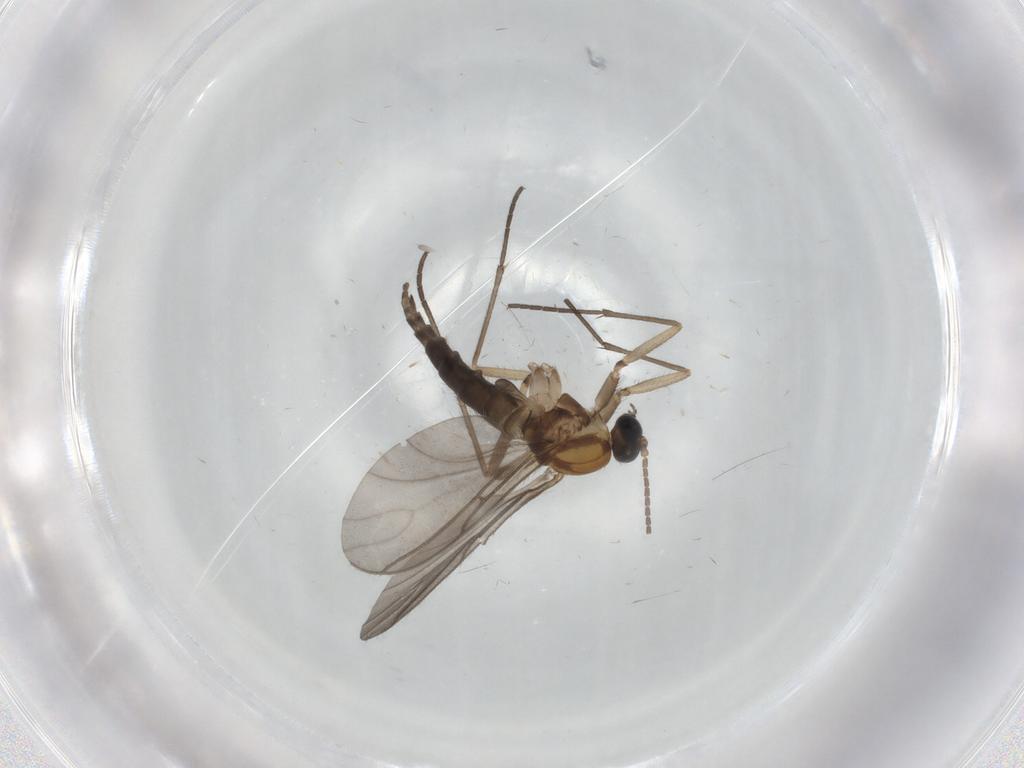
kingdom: Animalia
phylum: Arthropoda
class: Insecta
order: Diptera
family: Sciaridae
